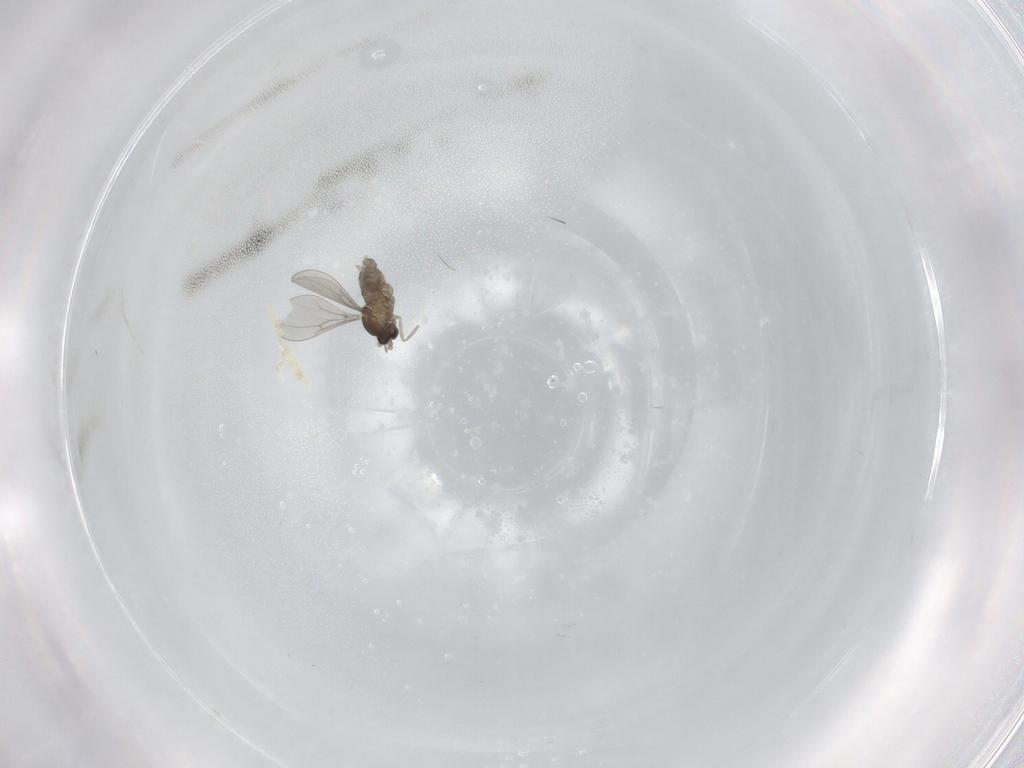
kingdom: Animalia
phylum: Arthropoda
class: Insecta
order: Diptera
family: Cecidomyiidae
